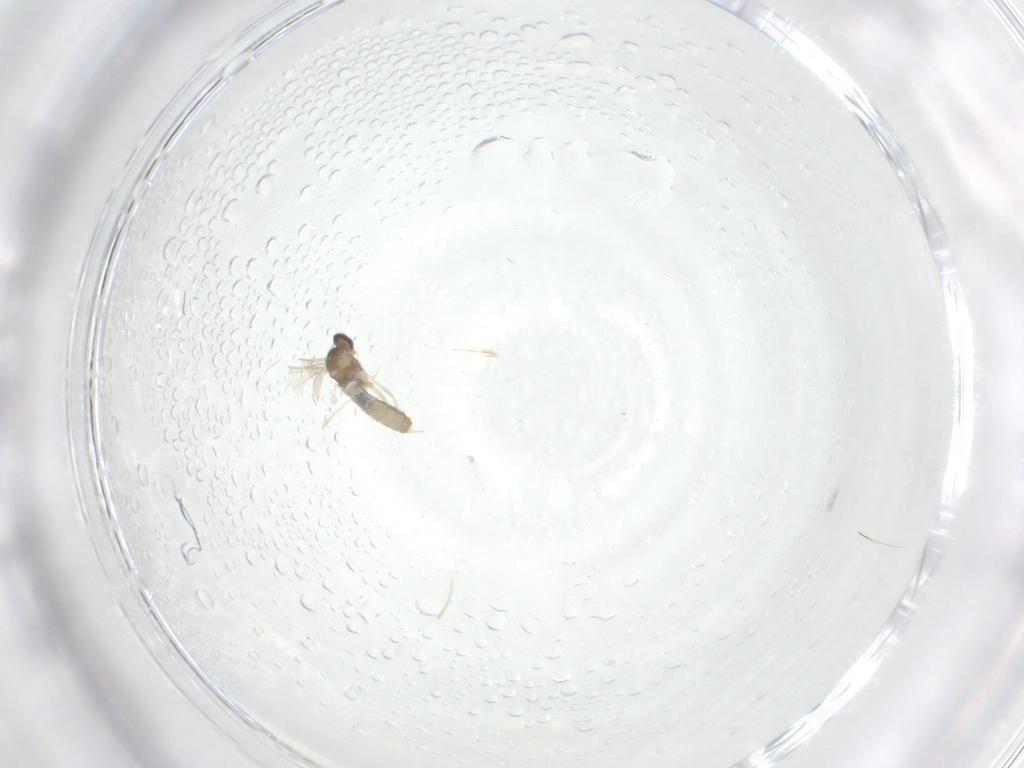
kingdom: Animalia
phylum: Arthropoda
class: Insecta
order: Diptera
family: Cecidomyiidae
